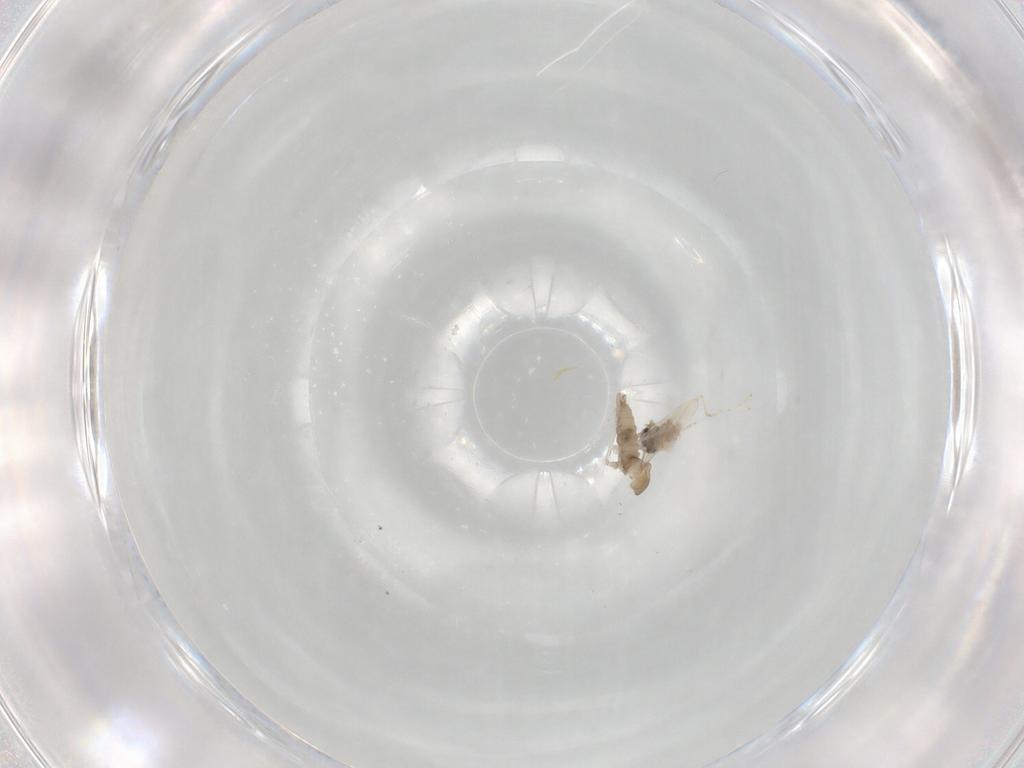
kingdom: Animalia
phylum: Arthropoda
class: Insecta
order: Diptera
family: Cecidomyiidae
